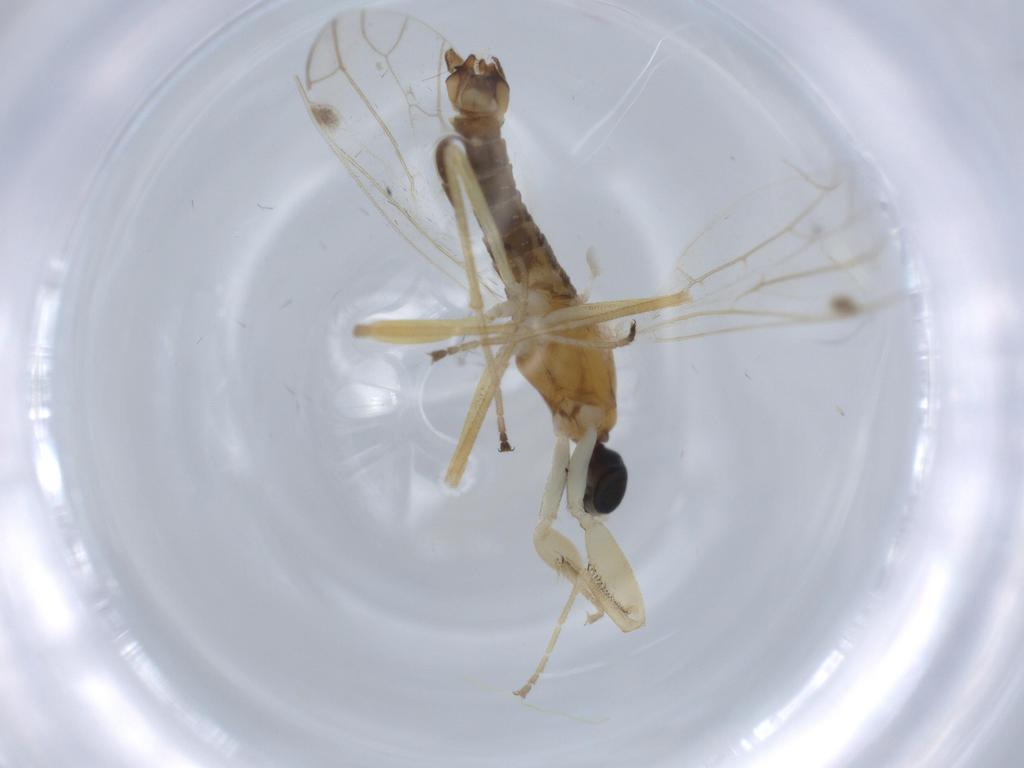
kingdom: Animalia
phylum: Arthropoda
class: Insecta
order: Diptera
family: Empididae
